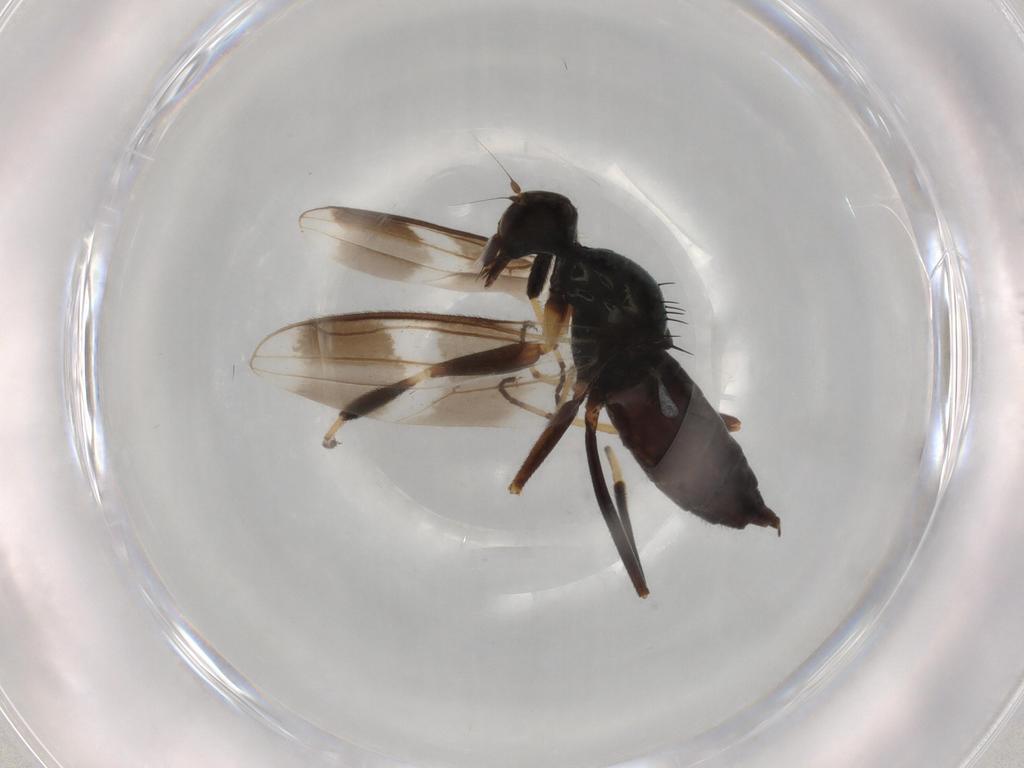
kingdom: Animalia
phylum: Arthropoda
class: Insecta
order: Diptera
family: Hybotidae
